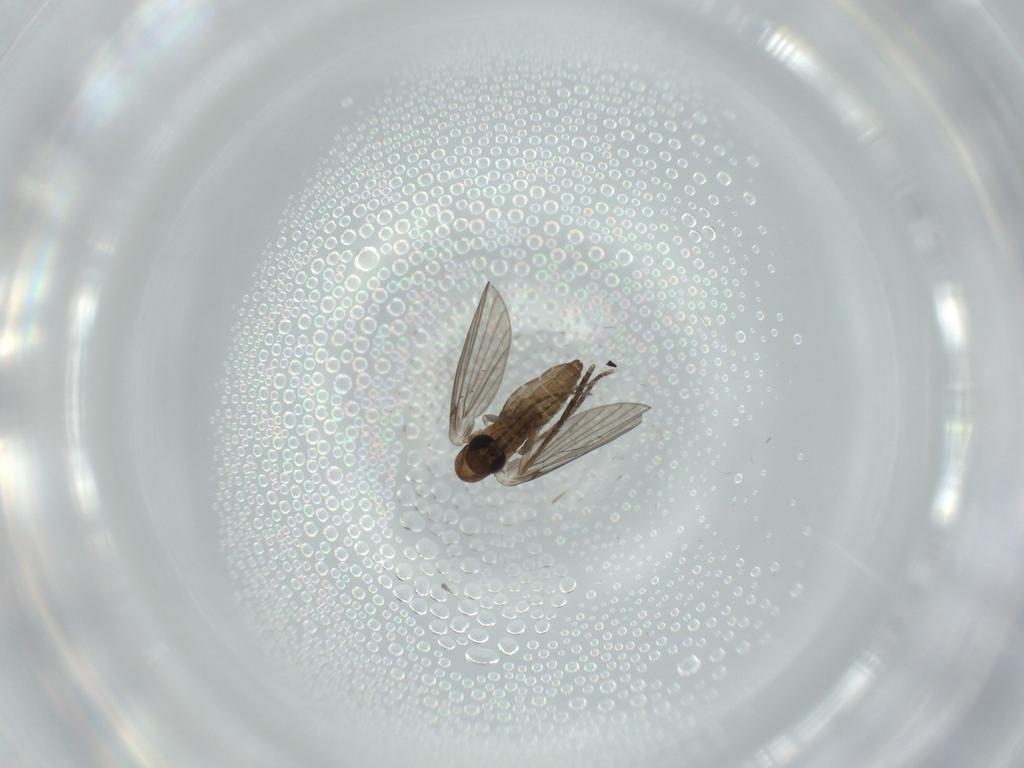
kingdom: Animalia
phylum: Arthropoda
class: Insecta
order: Diptera
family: Psychodidae
